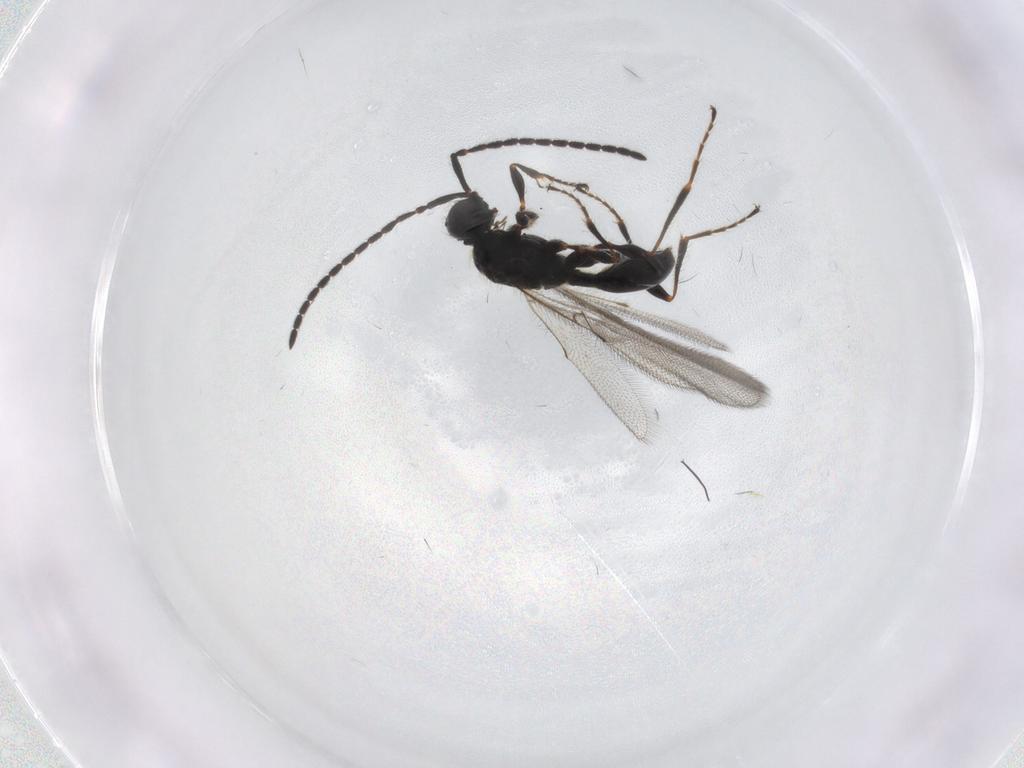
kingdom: Animalia
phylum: Arthropoda
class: Insecta
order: Hymenoptera
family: Diapriidae
